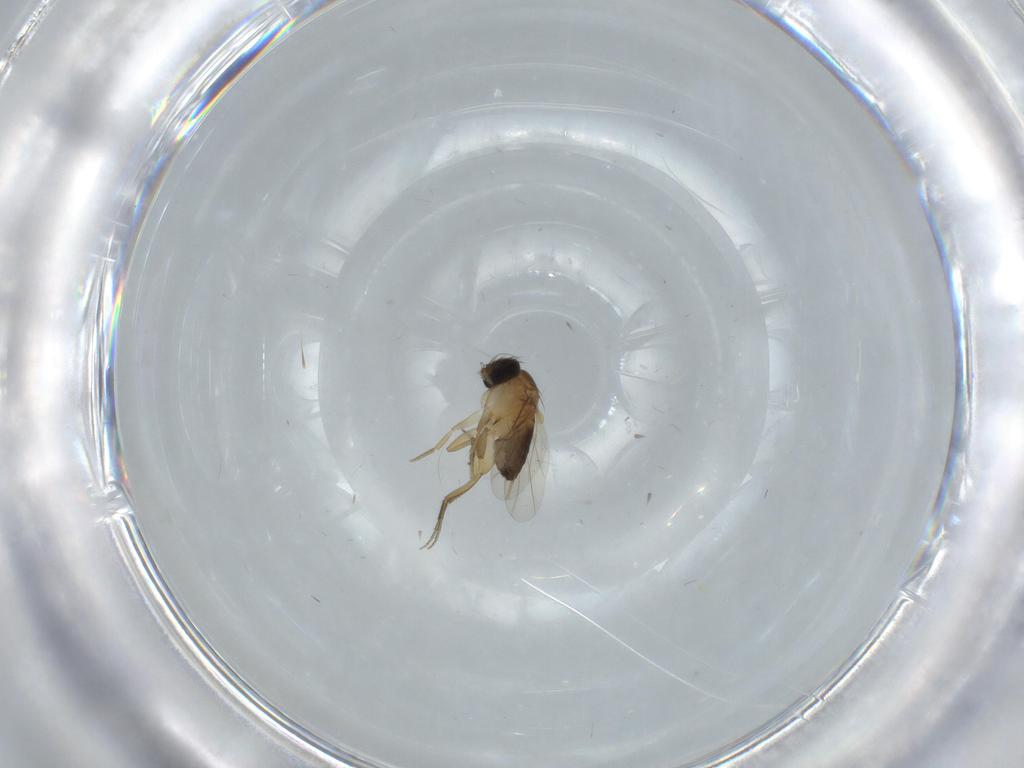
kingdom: Animalia
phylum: Arthropoda
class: Insecta
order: Diptera
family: Phoridae
